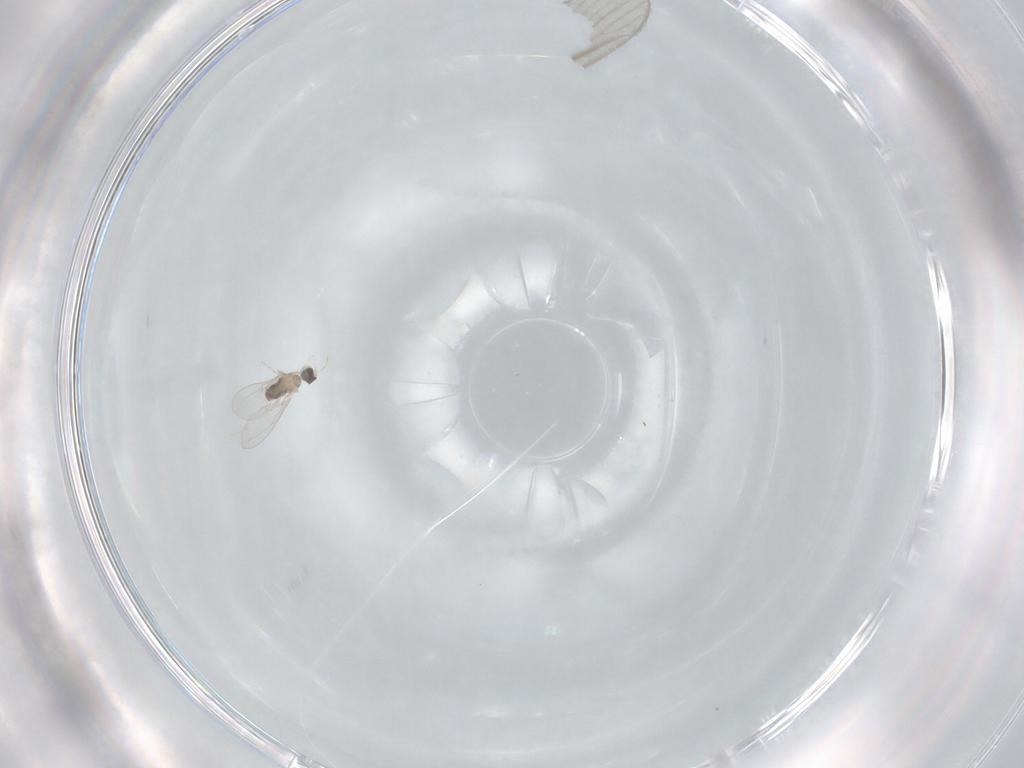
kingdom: Animalia
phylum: Arthropoda
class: Insecta
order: Diptera
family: Cecidomyiidae
